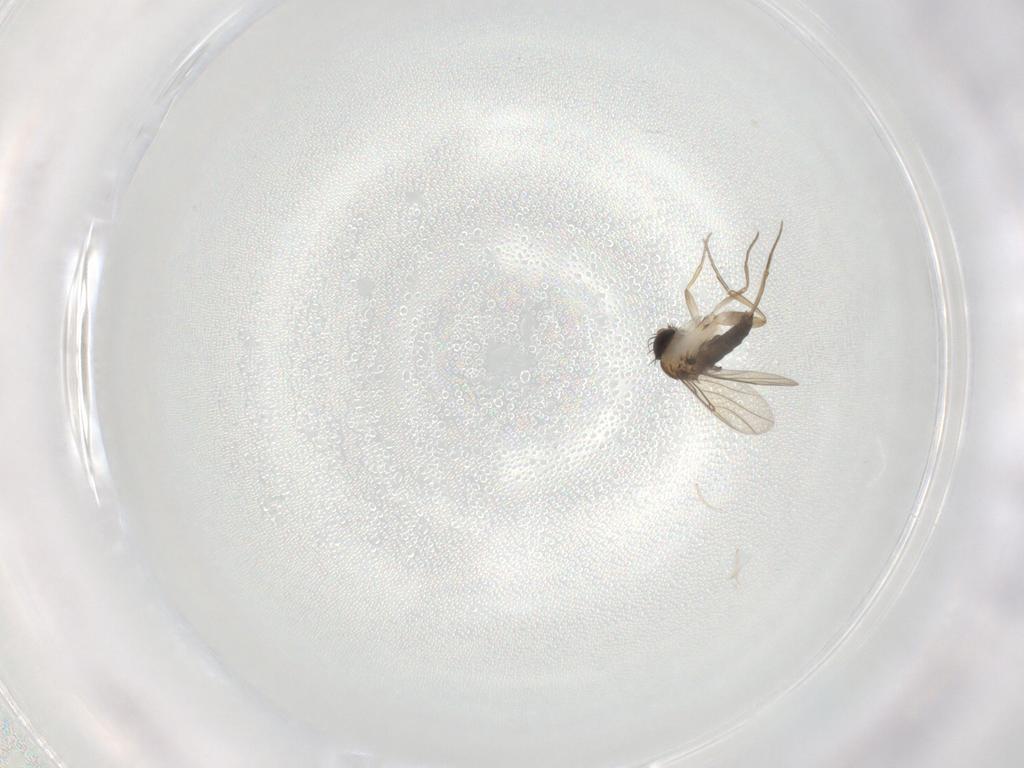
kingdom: Animalia
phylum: Arthropoda
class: Insecta
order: Diptera
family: Phoridae
